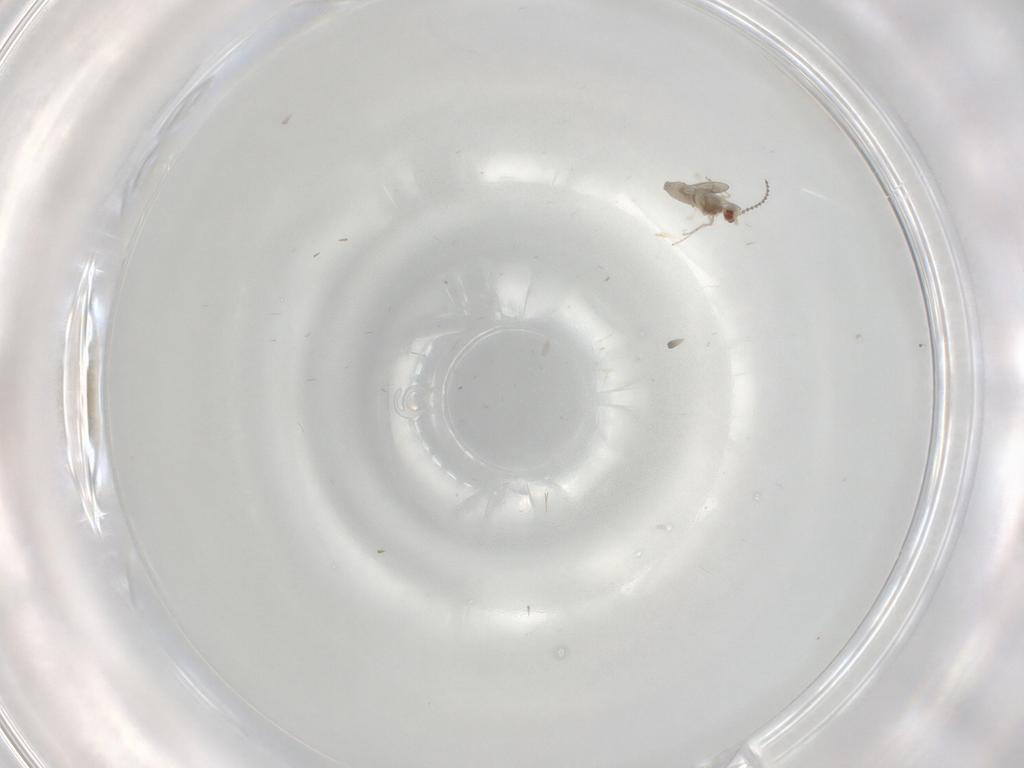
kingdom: Animalia
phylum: Arthropoda
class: Insecta
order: Diptera
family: Cecidomyiidae
